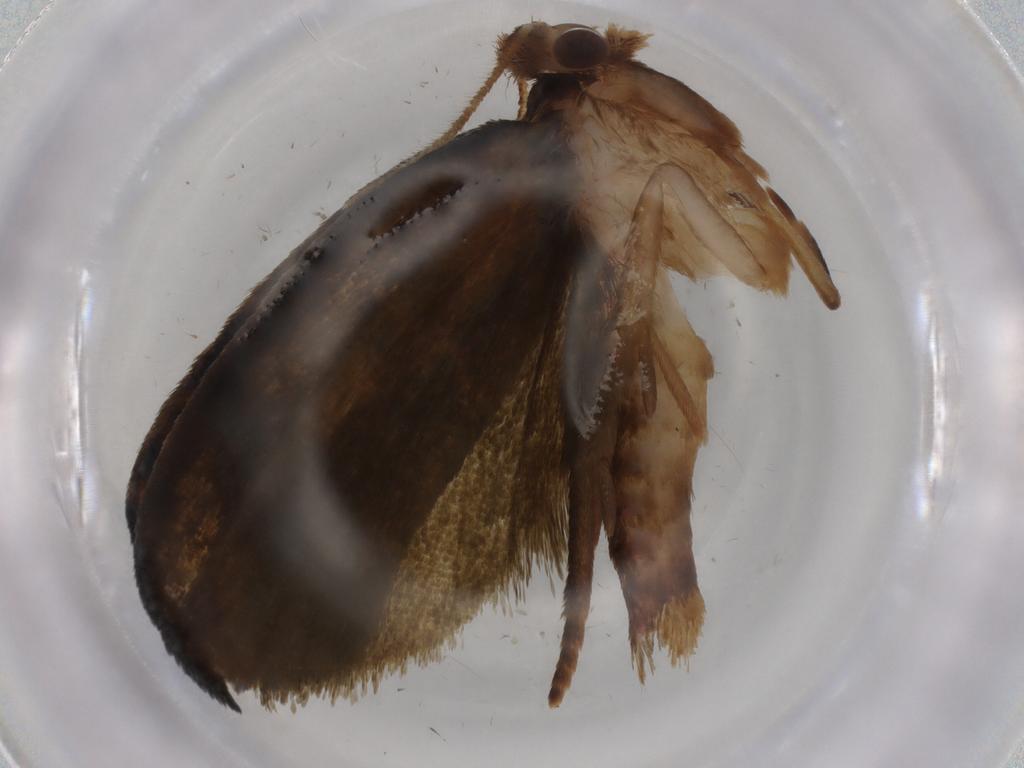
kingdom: Animalia
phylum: Arthropoda
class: Insecta
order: Lepidoptera
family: Geometridae
